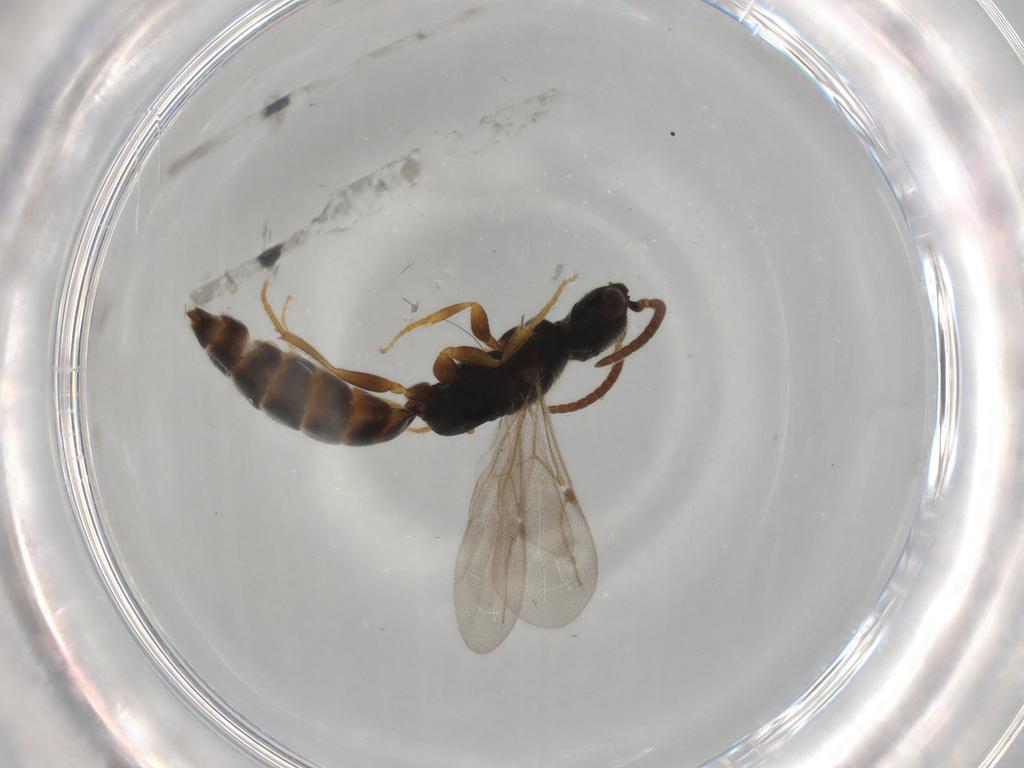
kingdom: Animalia
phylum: Arthropoda
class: Insecta
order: Hymenoptera
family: Bethylidae
